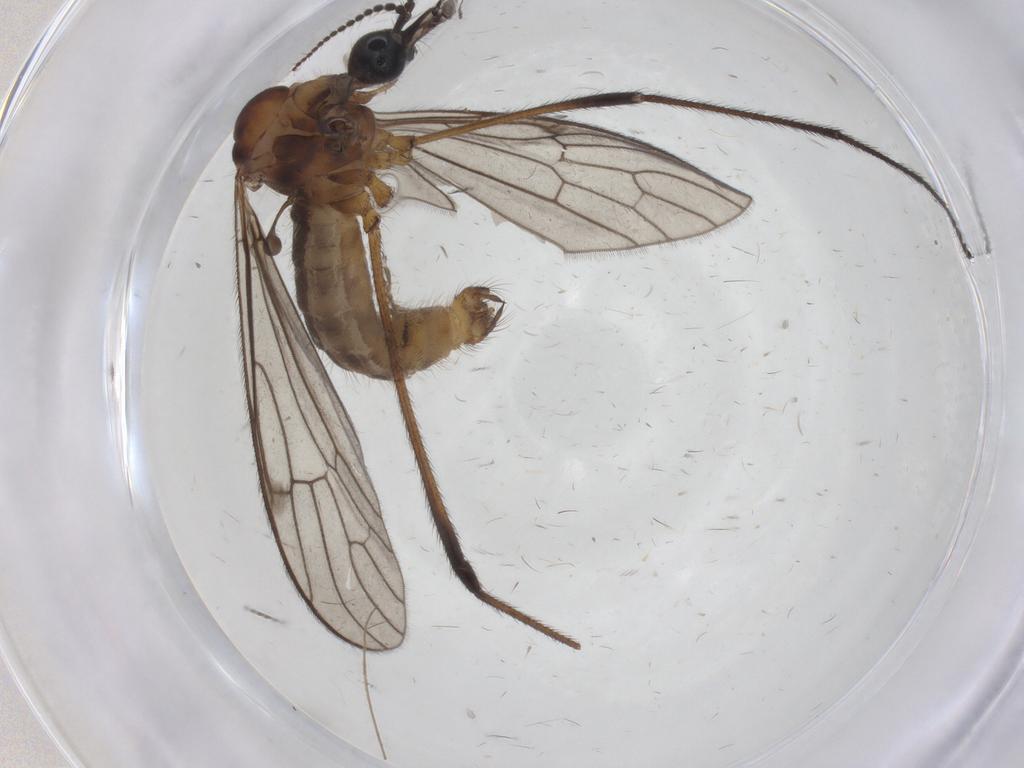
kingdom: Animalia
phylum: Arthropoda
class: Insecta
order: Diptera
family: Limoniidae
